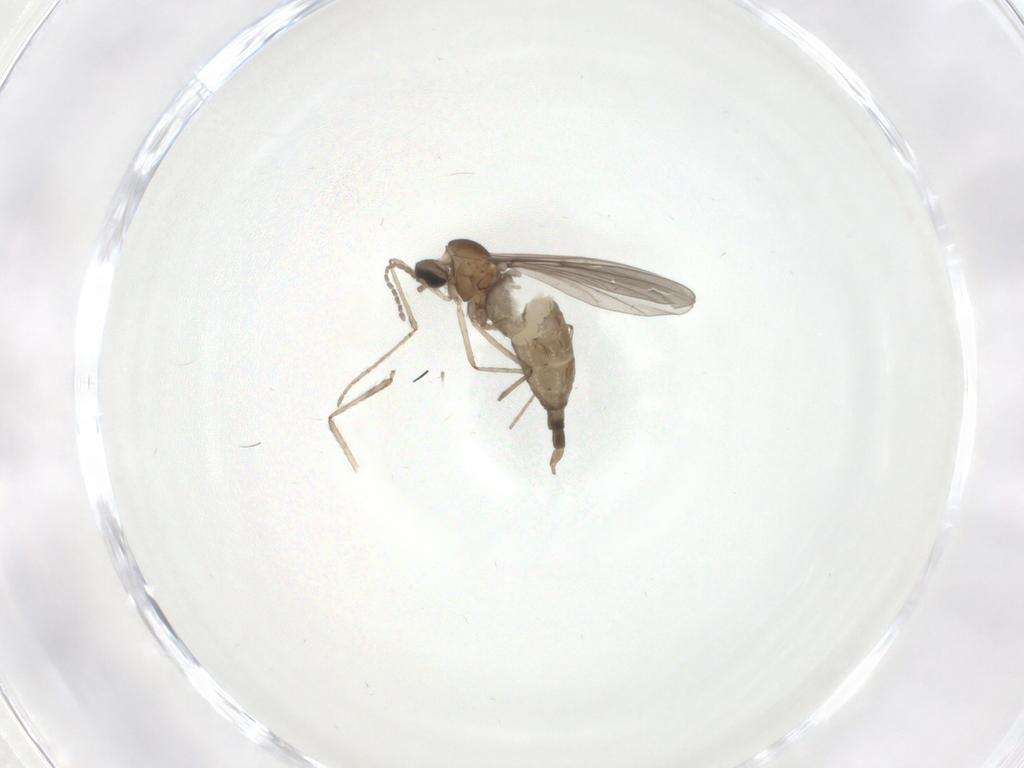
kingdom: Animalia
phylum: Arthropoda
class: Insecta
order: Diptera
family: Cecidomyiidae
